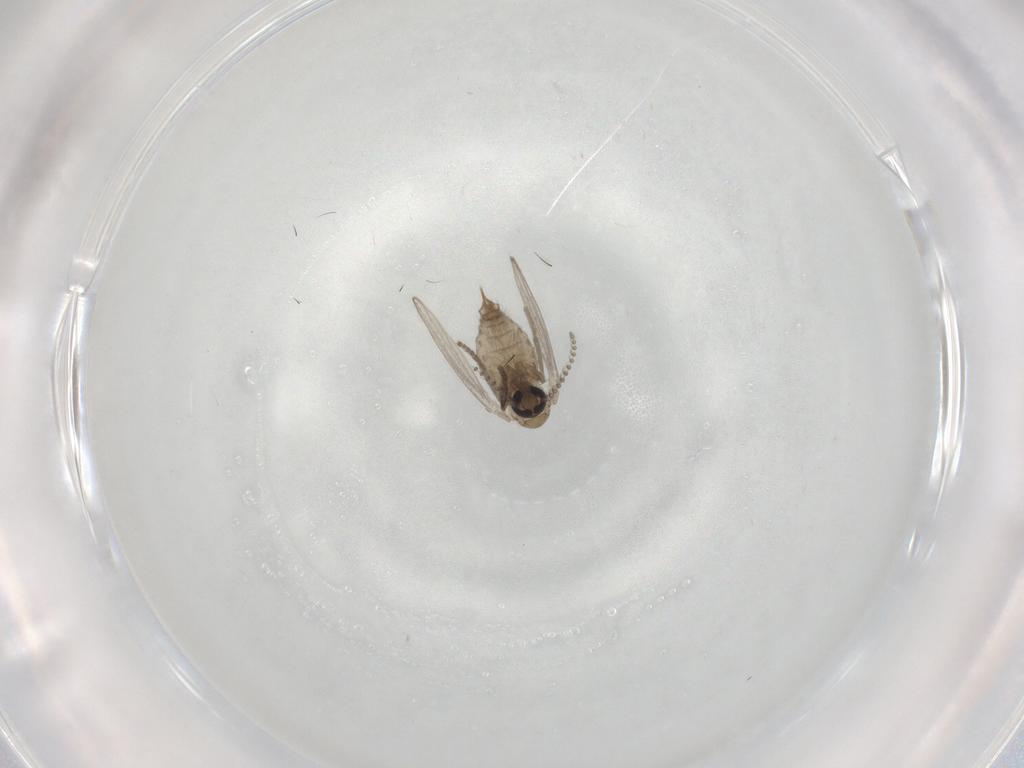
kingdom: Animalia
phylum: Arthropoda
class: Insecta
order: Diptera
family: Psychodidae
